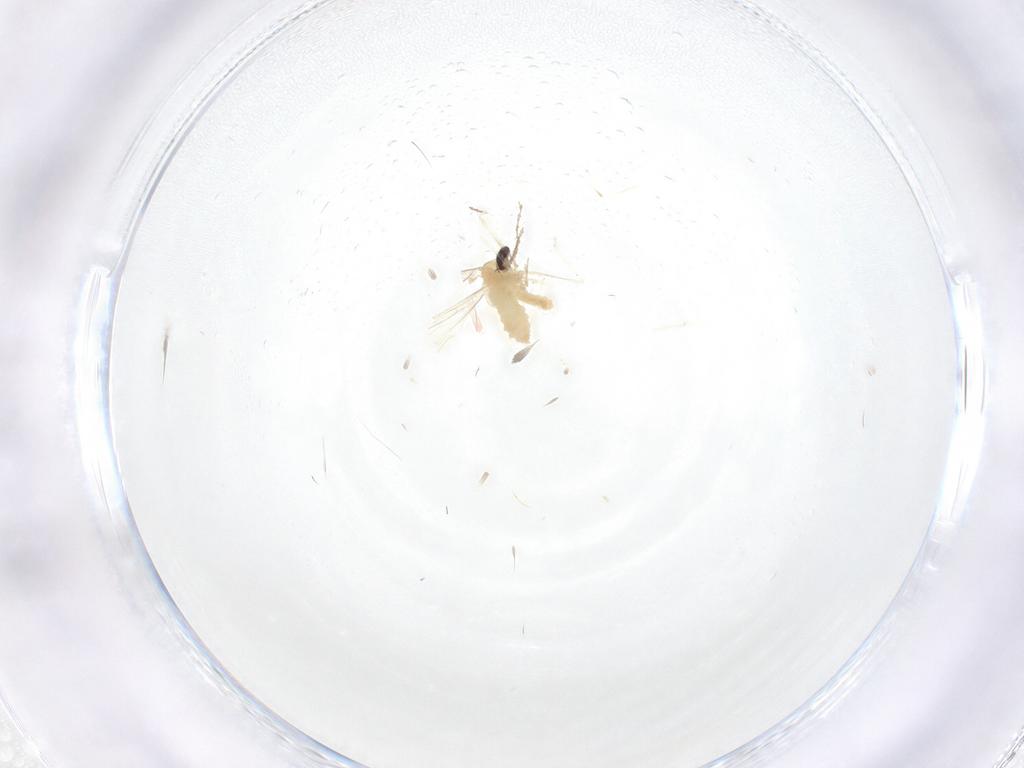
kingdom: Animalia
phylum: Arthropoda
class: Insecta
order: Diptera
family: Cecidomyiidae
